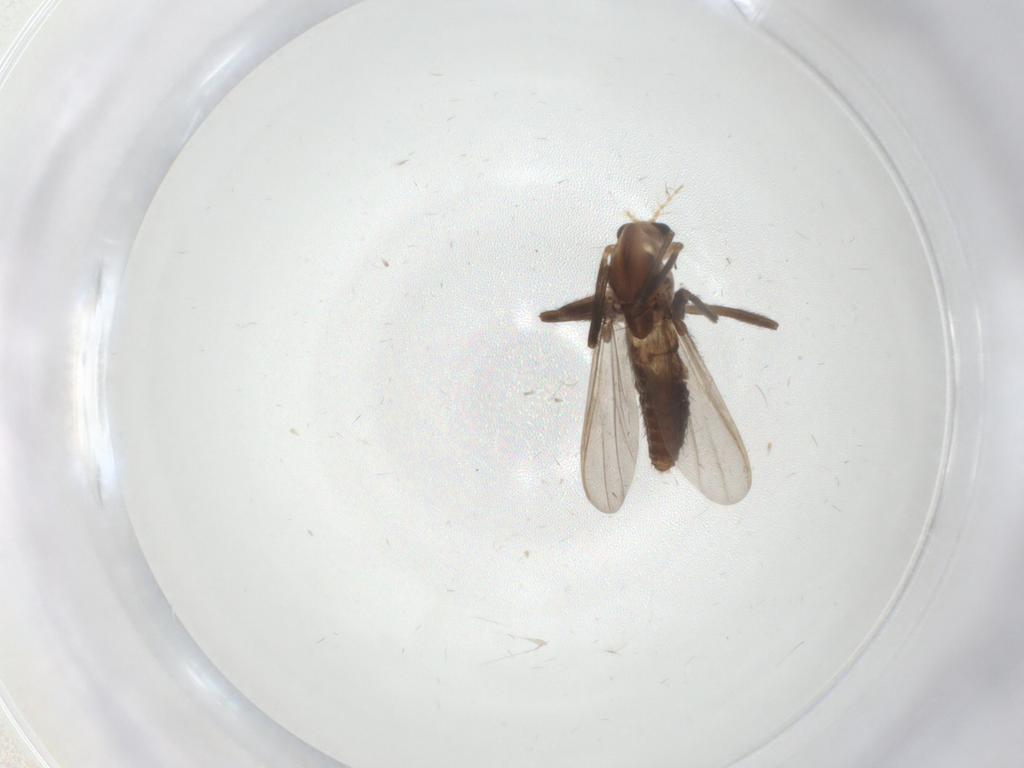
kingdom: Animalia
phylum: Arthropoda
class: Insecta
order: Diptera
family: Chironomidae
